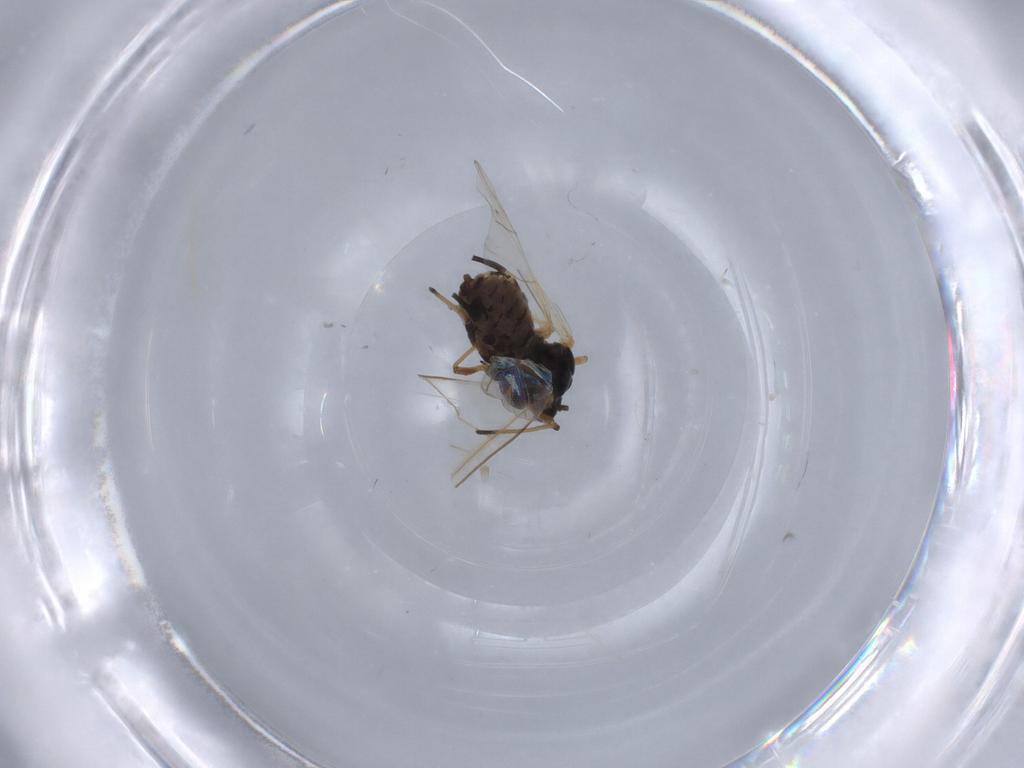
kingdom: Animalia
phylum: Arthropoda
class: Insecta
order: Hemiptera
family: Aphididae
